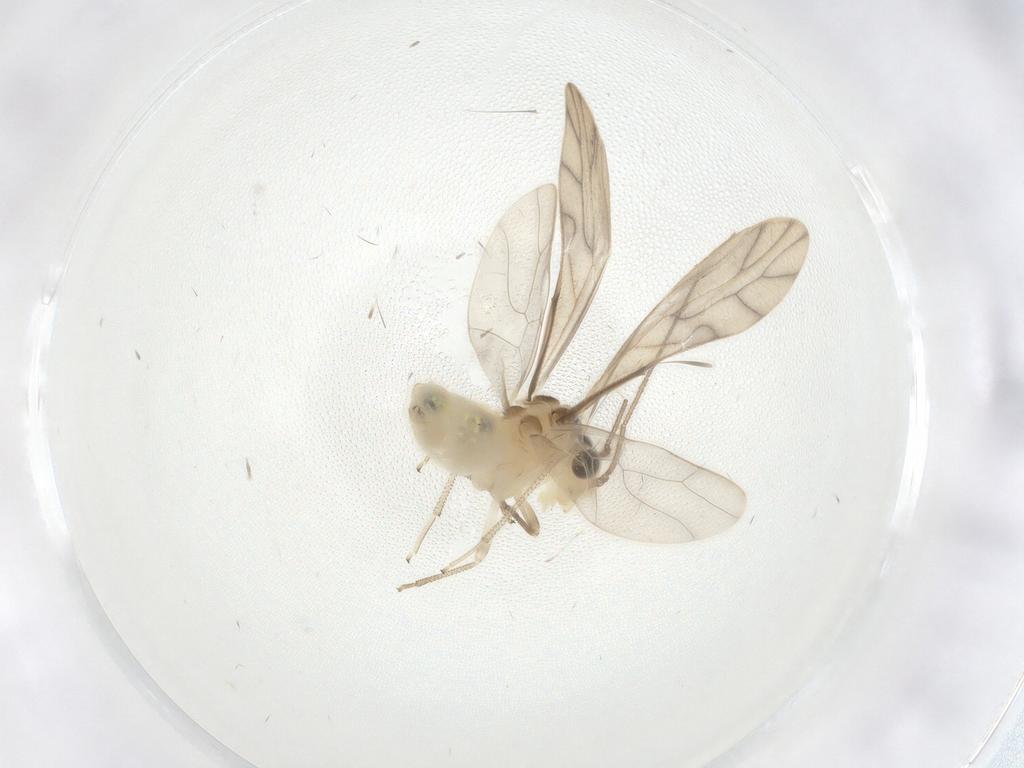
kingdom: Animalia
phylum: Arthropoda
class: Insecta
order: Psocodea
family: Caeciliusidae
